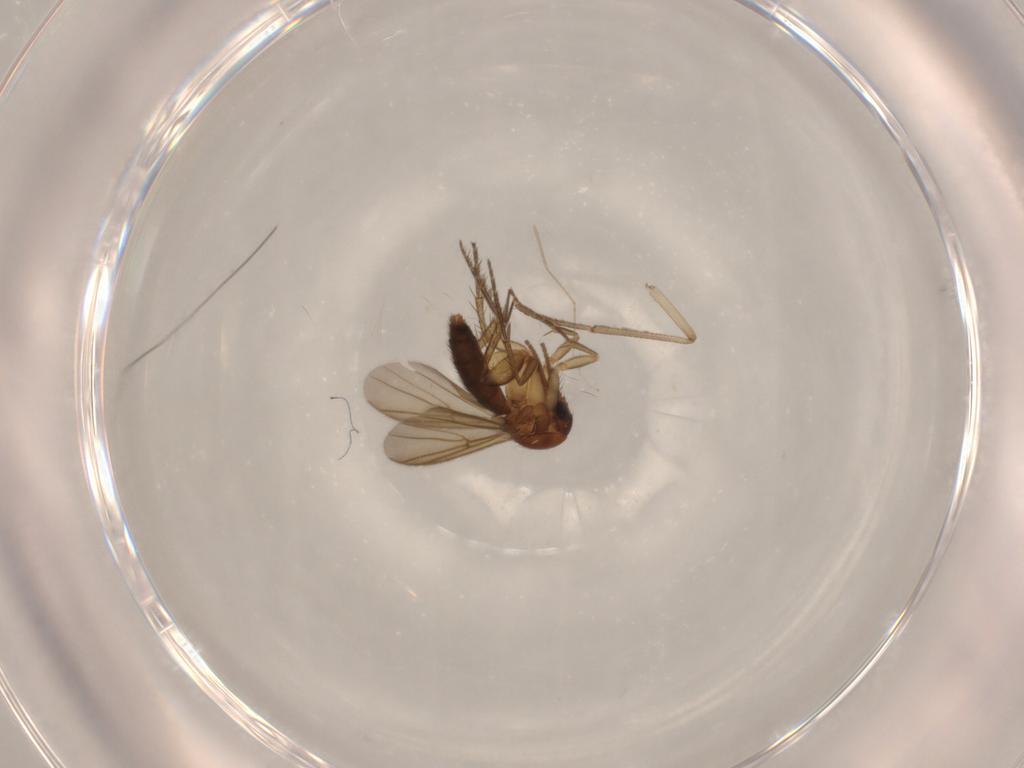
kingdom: Animalia
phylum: Arthropoda
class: Insecta
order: Diptera
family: Psychodidae
